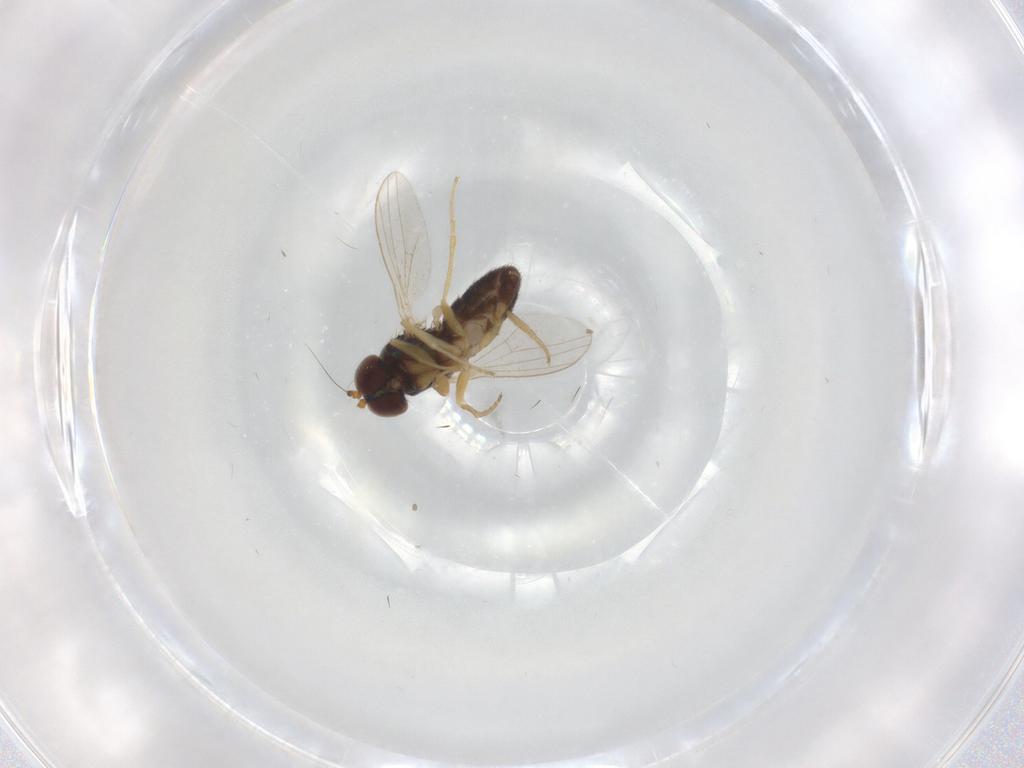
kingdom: Animalia
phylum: Arthropoda
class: Insecta
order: Diptera
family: Dolichopodidae
